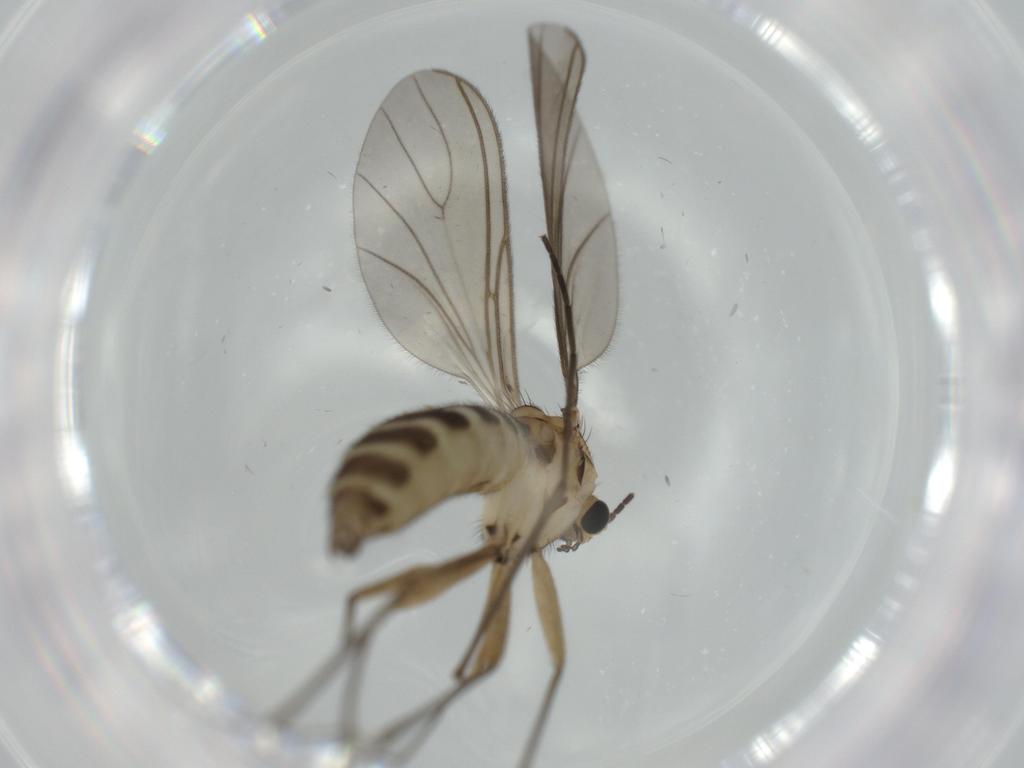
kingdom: Animalia
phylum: Arthropoda
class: Insecta
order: Diptera
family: Sciaridae
